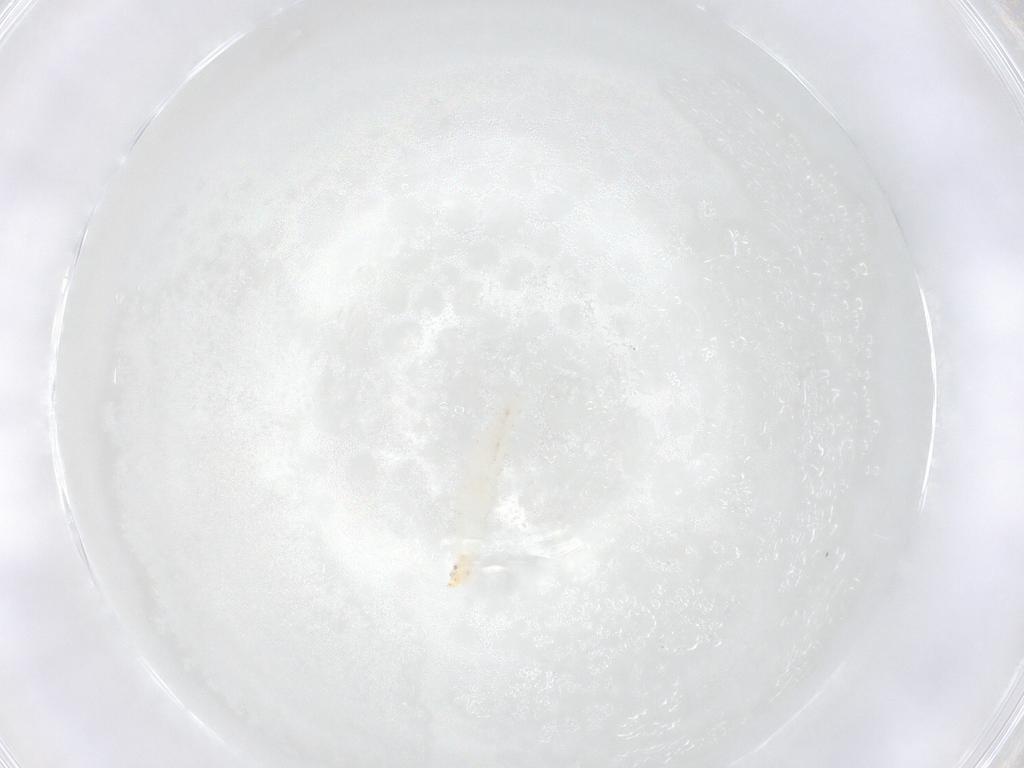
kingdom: Animalia
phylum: Arthropoda
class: Insecta
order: Diptera
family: Stratiomyidae
